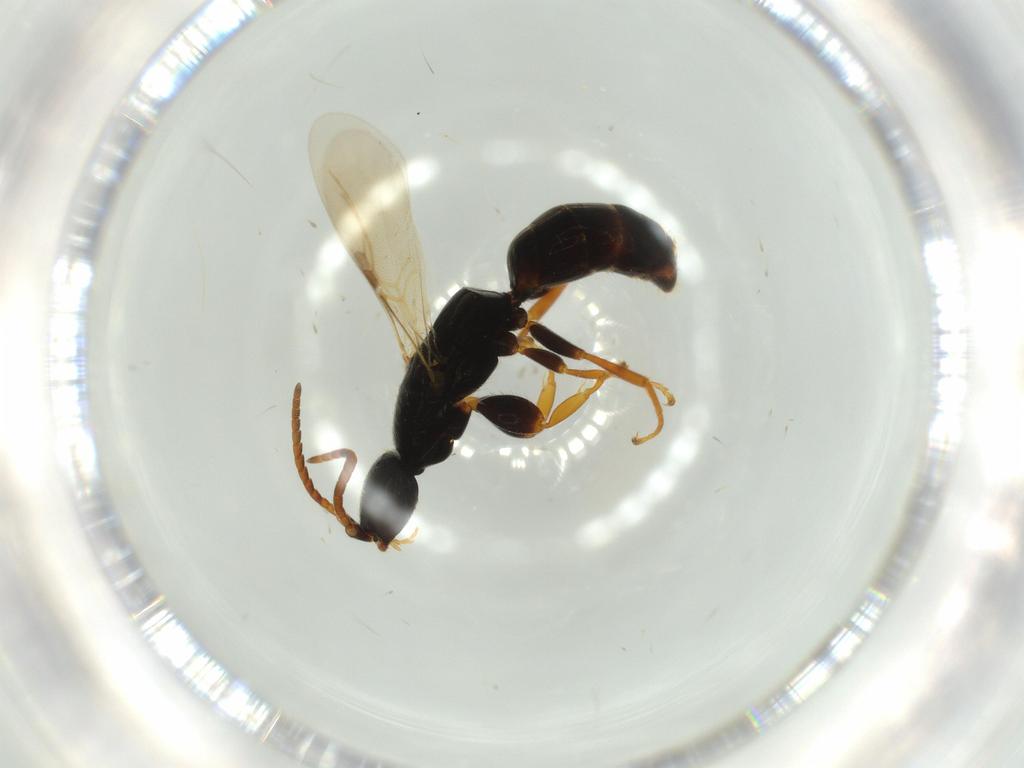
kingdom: Animalia
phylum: Arthropoda
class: Insecta
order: Hymenoptera
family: Bethylidae
